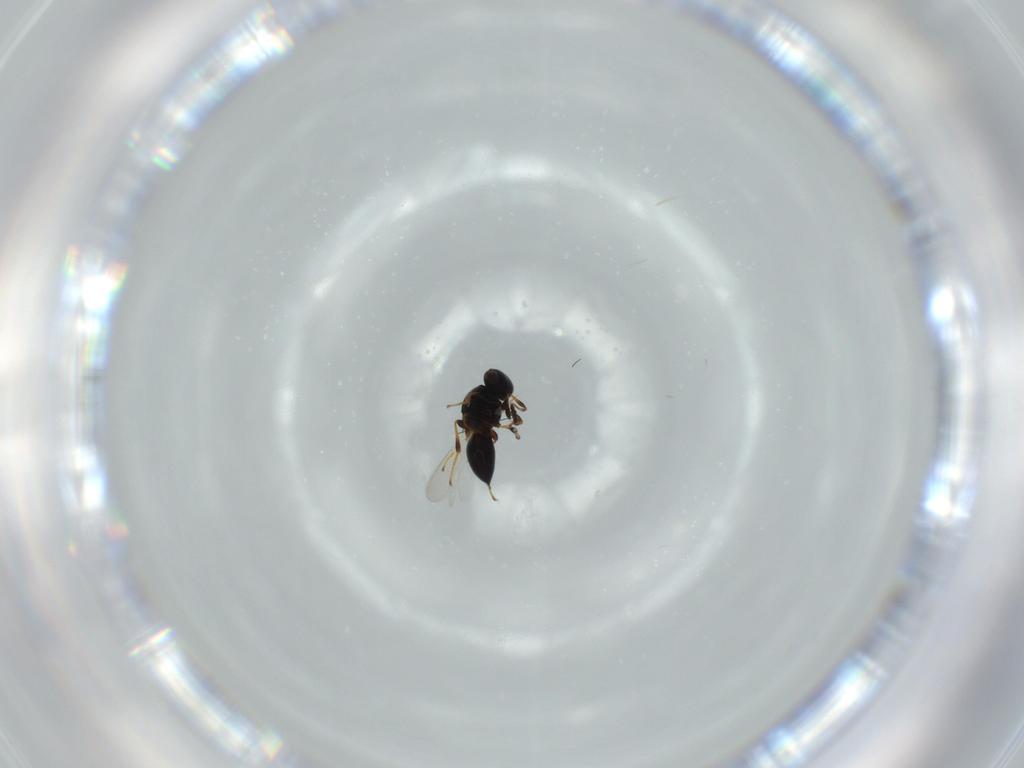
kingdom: Animalia
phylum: Arthropoda
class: Insecta
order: Hymenoptera
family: Platygastridae
